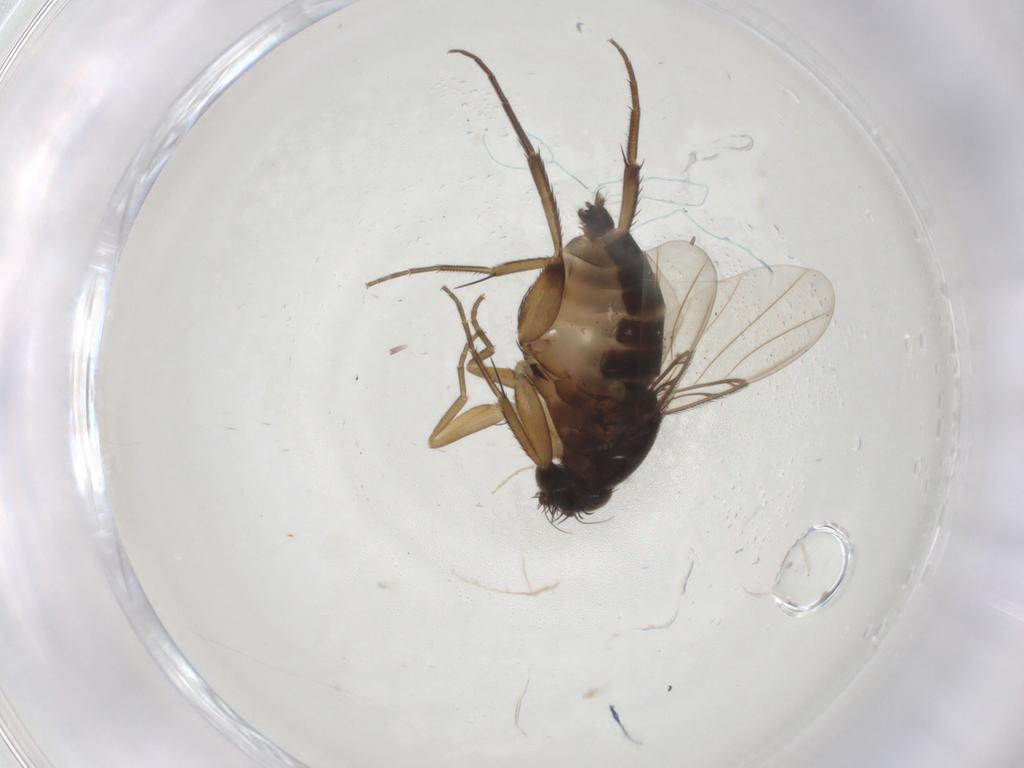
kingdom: Animalia
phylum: Arthropoda
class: Insecta
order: Diptera
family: Phoridae
